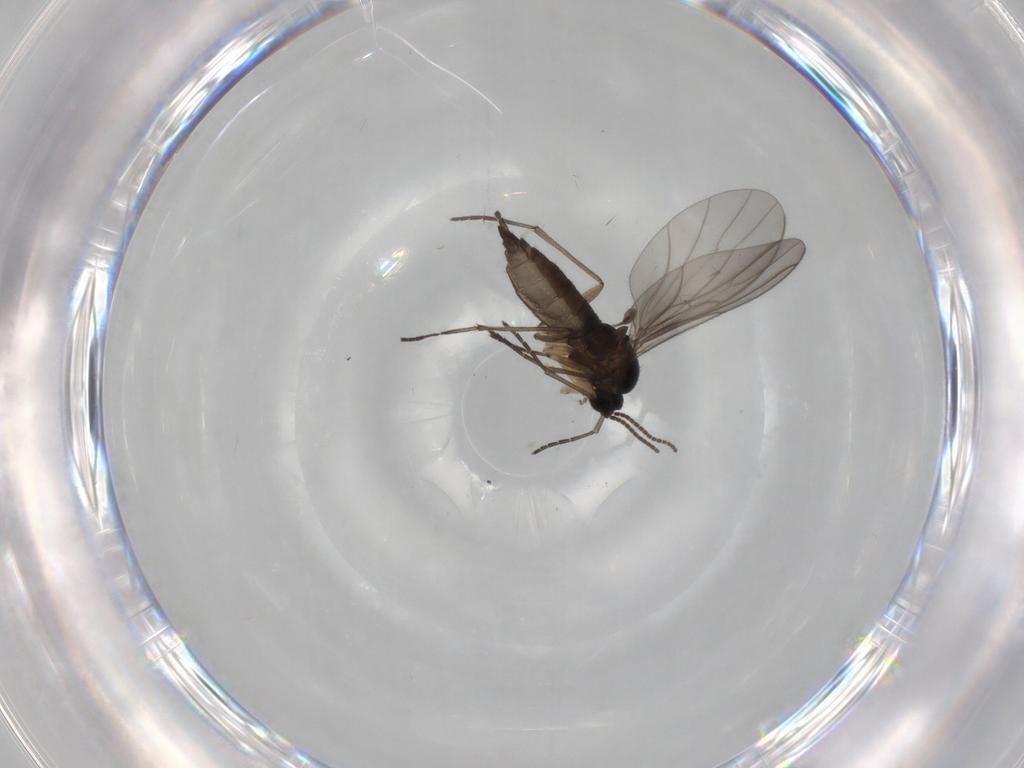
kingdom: Animalia
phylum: Arthropoda
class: Insecta
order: Diptera
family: Sciaridae
